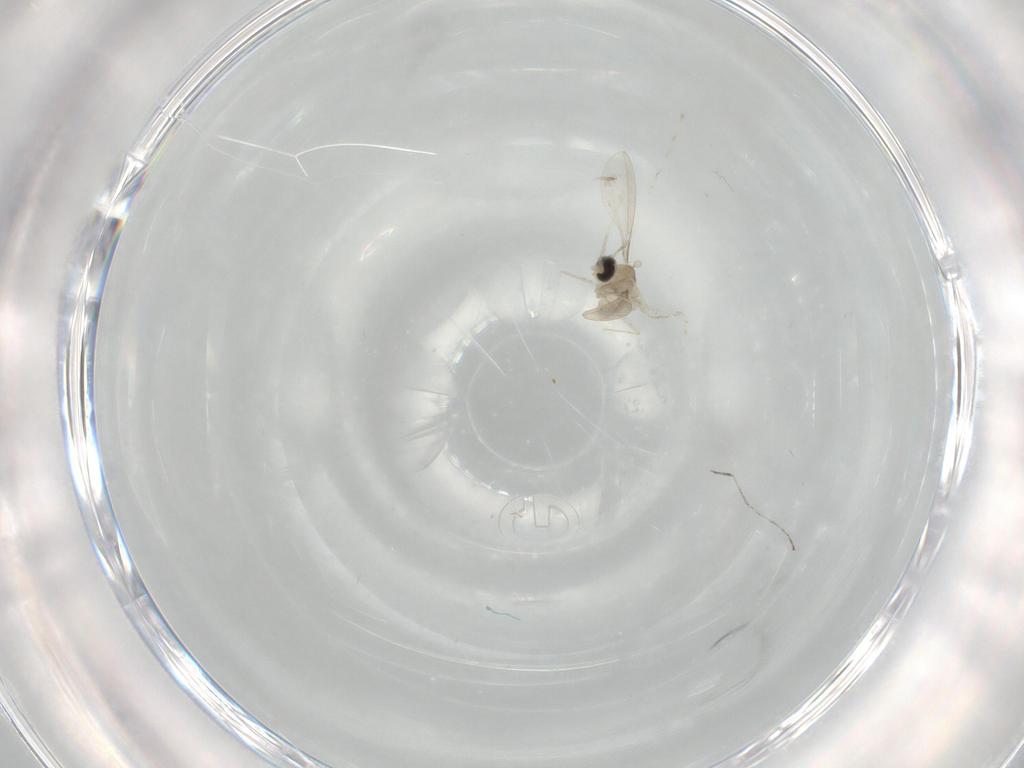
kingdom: Animalia
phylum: Arthropoda
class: Insecta
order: Diptera
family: Cecidomyiidae
